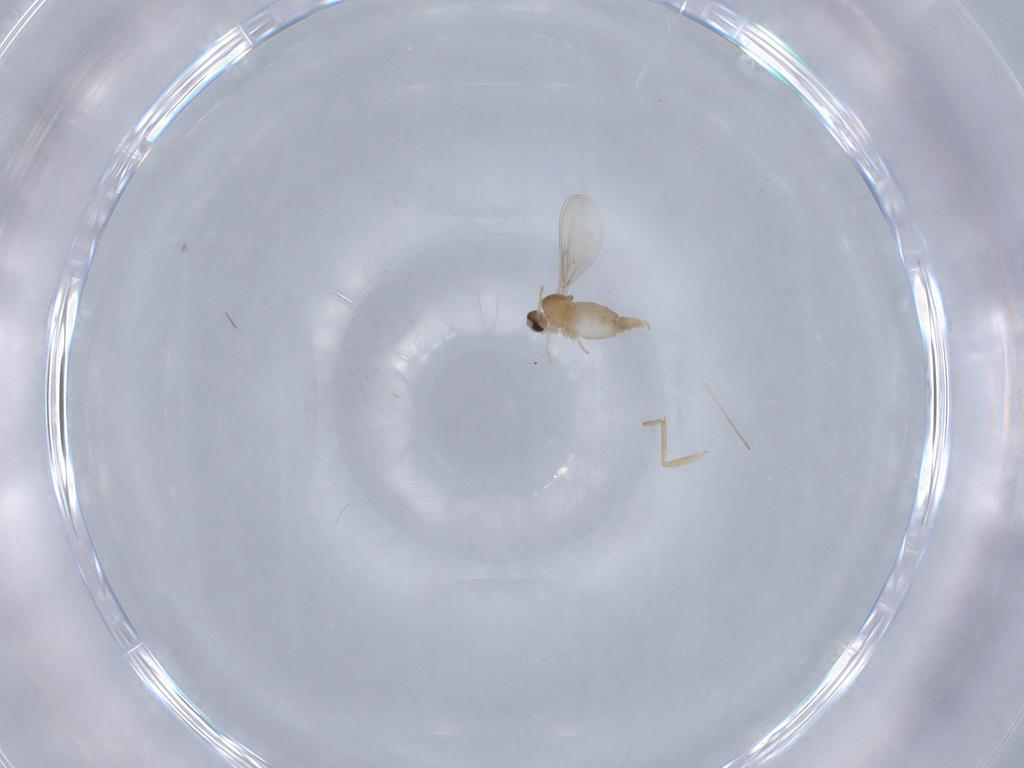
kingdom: Animalia
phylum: Arthropoda
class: Insecta
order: Diptera
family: Cecidomyiidae
